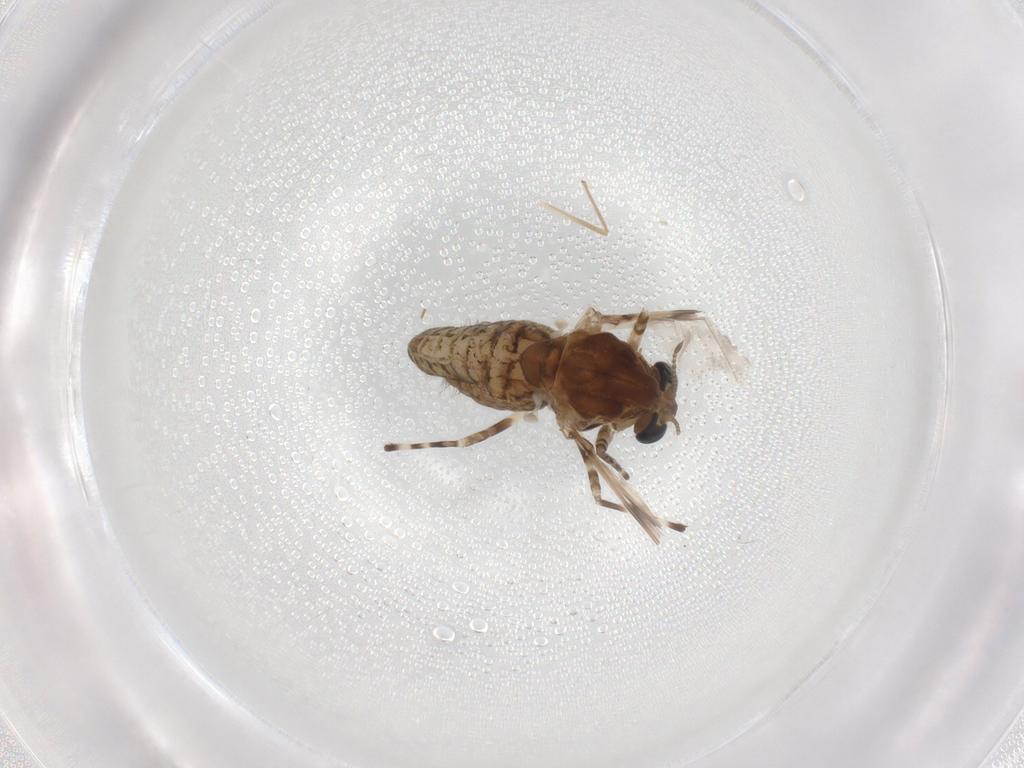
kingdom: Animalia
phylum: Arthropoda
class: Insecta
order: Diptera
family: Chironomidae
